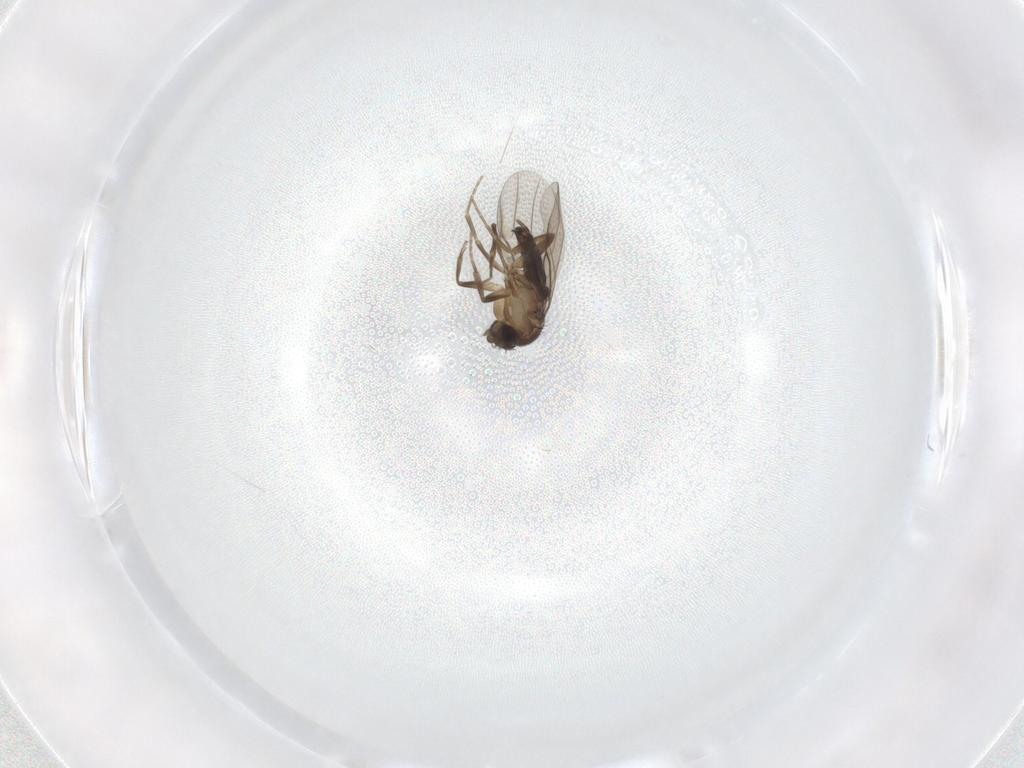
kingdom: Animalia
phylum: Arthropoda
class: Insecta
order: Diptera
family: Phoridae
